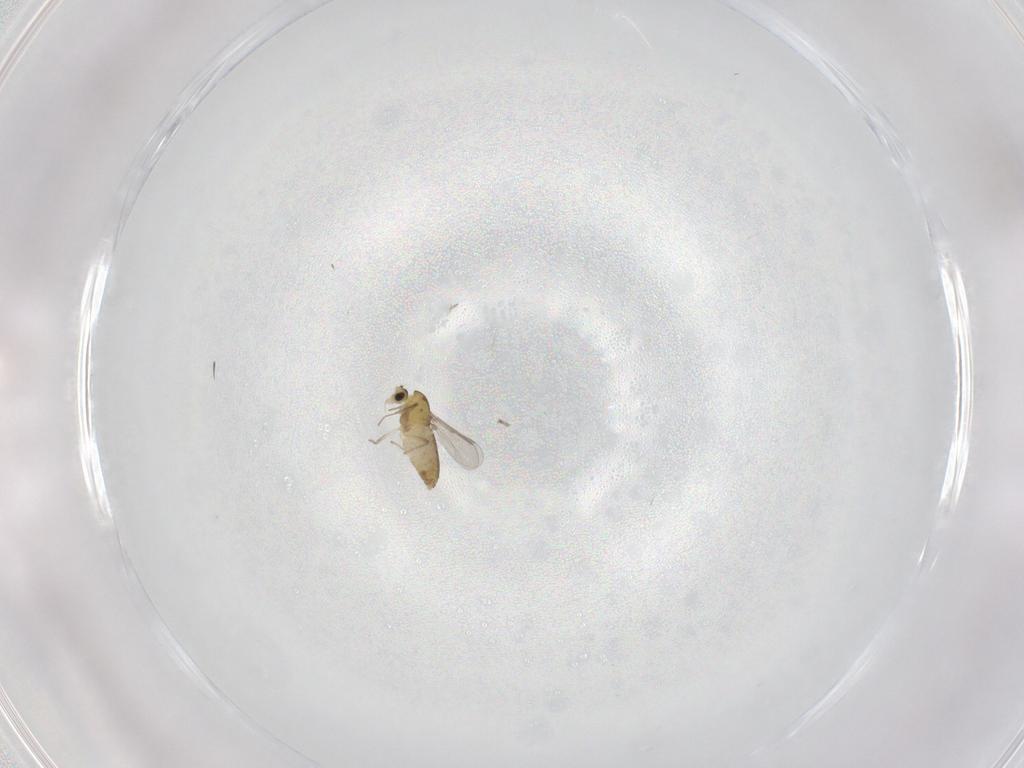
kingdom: Animalia
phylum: Arthropoda
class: Insecta
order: Diptera
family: Chironomidae
